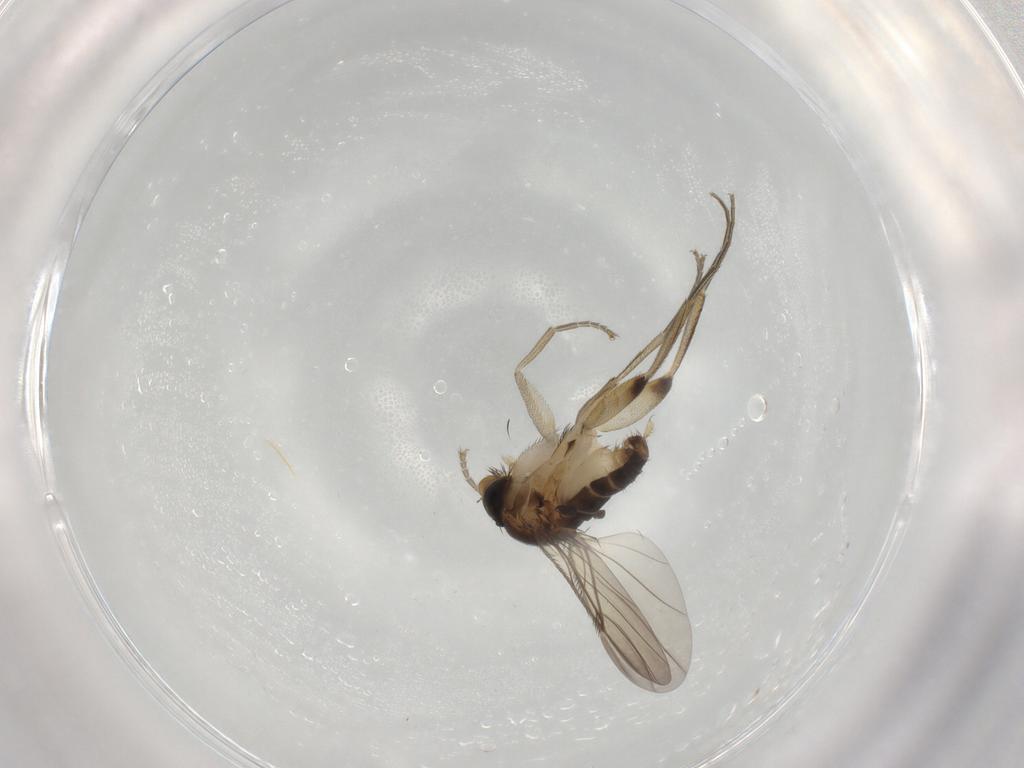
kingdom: Animalia
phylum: Arthropoda
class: Insecta
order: Diptera
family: Phoridae
